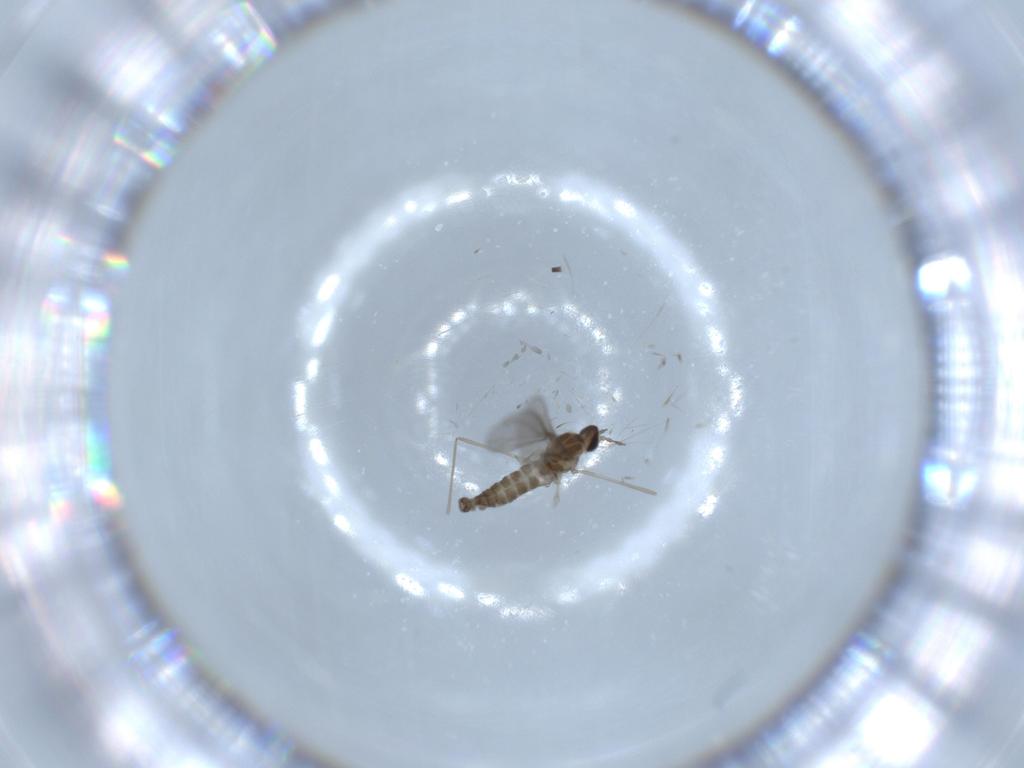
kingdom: Animalia
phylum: Arthropoda
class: Insecta
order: Diptera
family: Cecidomyiidae
